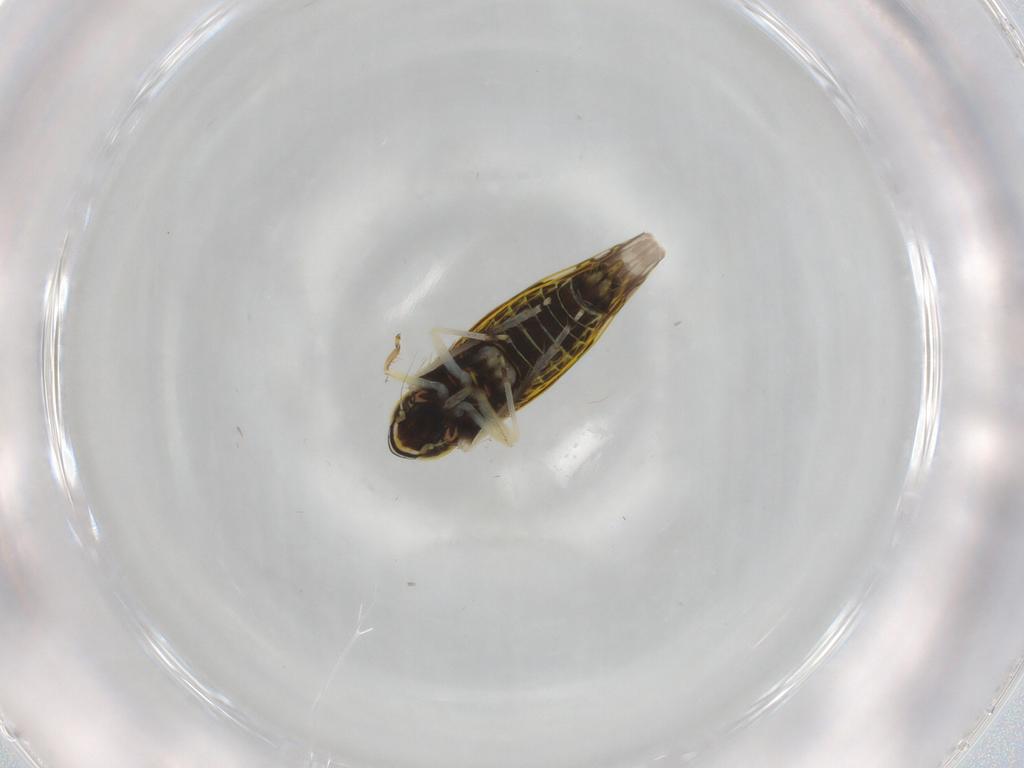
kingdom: Animalia
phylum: Arthropoda
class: Insecta
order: Hemiptera
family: Cicadellidae
